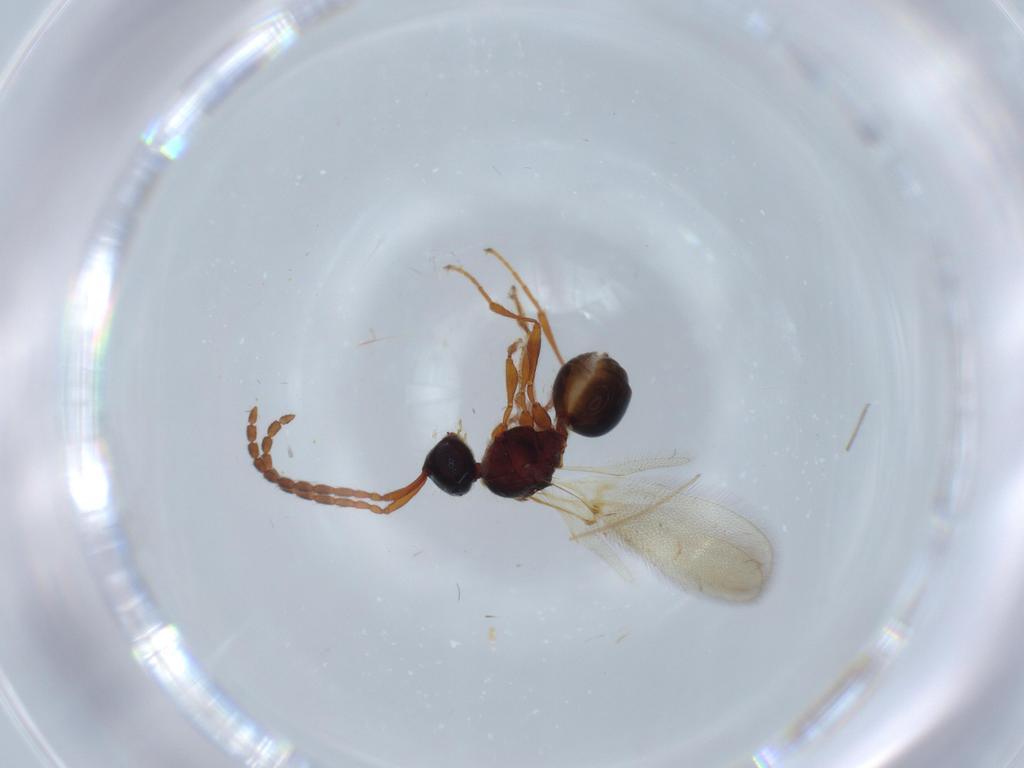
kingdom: Animalia
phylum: Arthropoda
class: Insecta
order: Hymenoptera
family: Diapriidae
